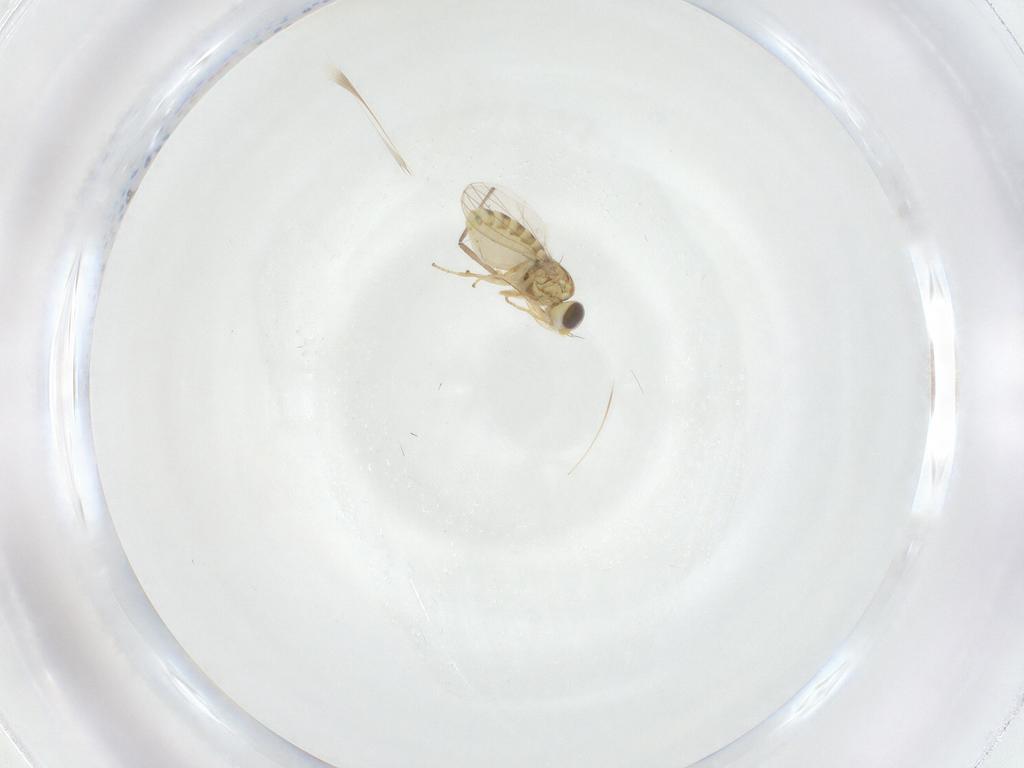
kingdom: Animalia
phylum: Arthropoda
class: Insecta
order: Diptera
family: Chyromyidae
